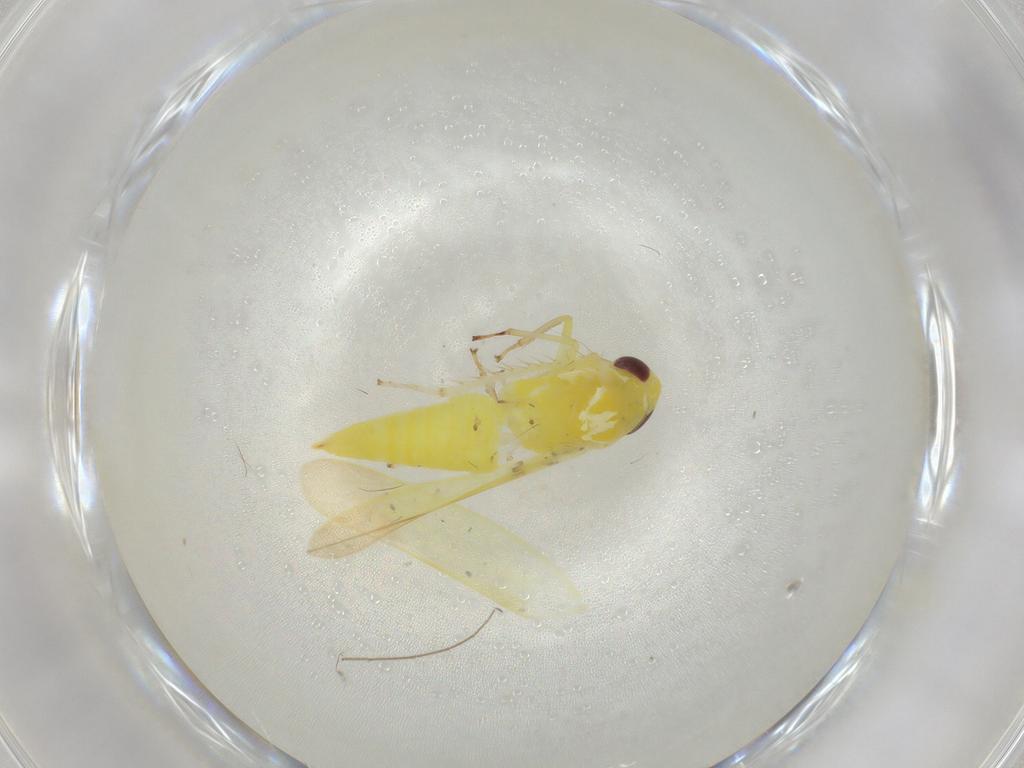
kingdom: Animalia
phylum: Arthropoda
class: Insecta
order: Hemiptera
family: Cicadellidae
